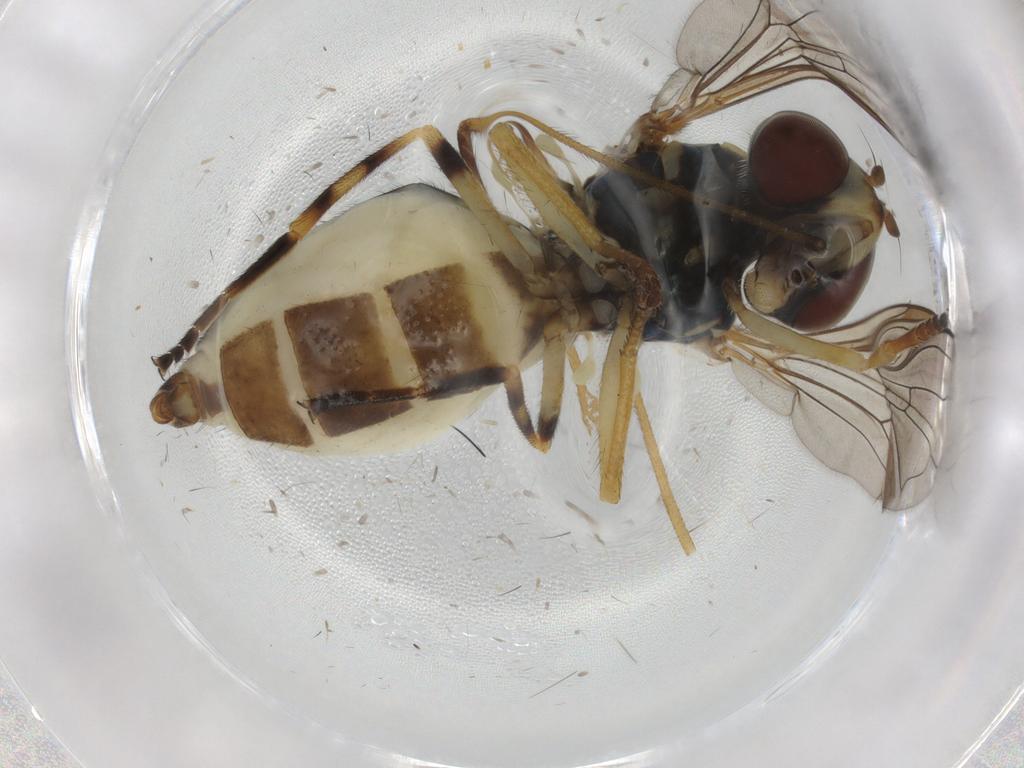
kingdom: Animalia
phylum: Arthropoda
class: Insecta
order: Diptera
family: Syrphidae
